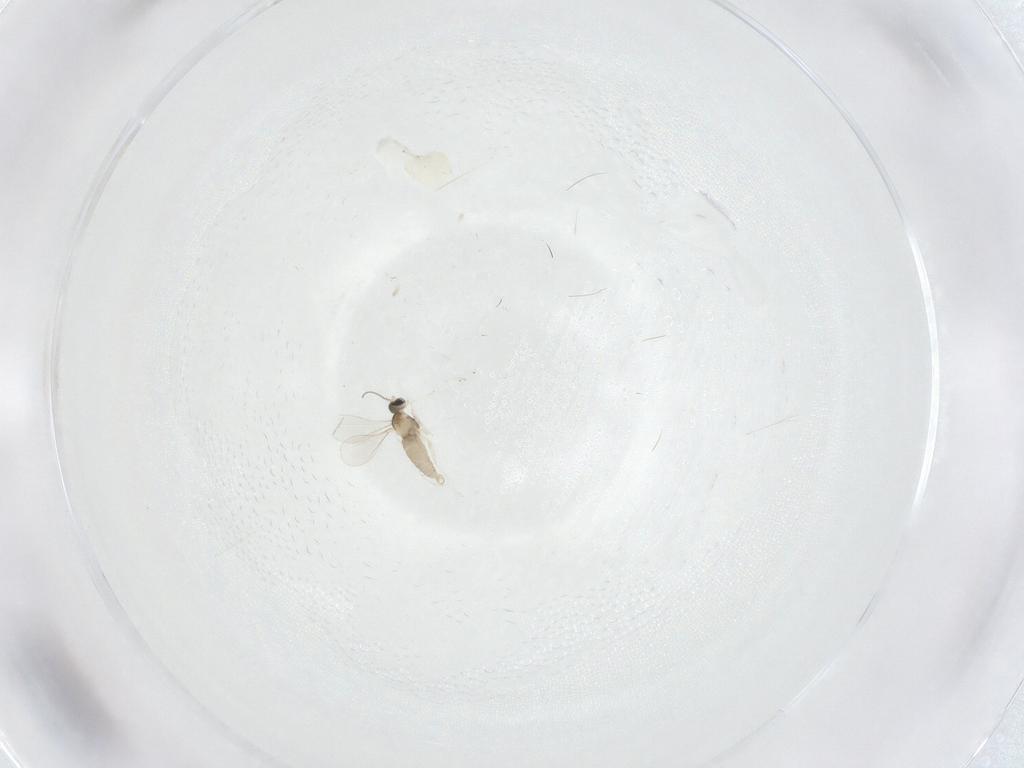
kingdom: Animalia
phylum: Arthropoda
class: Insecta
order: Diptera
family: Cecidomyiidae
